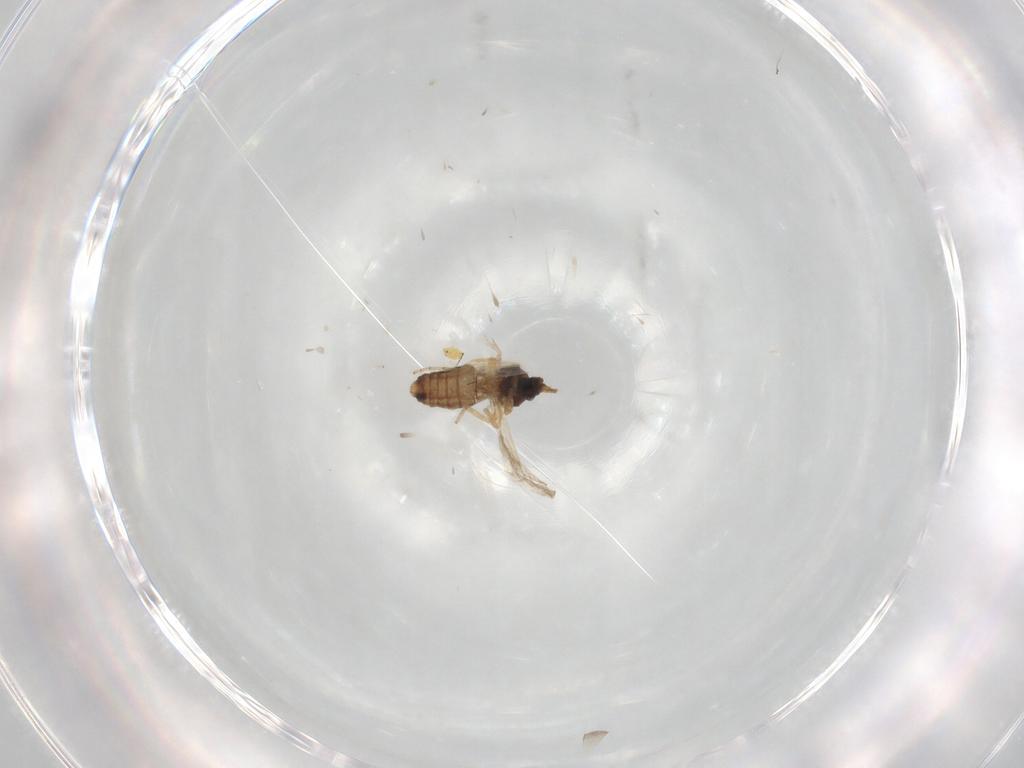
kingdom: Animalia
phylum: Arthropoda
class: Insecta
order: Diptera
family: Ceratopogonidae
